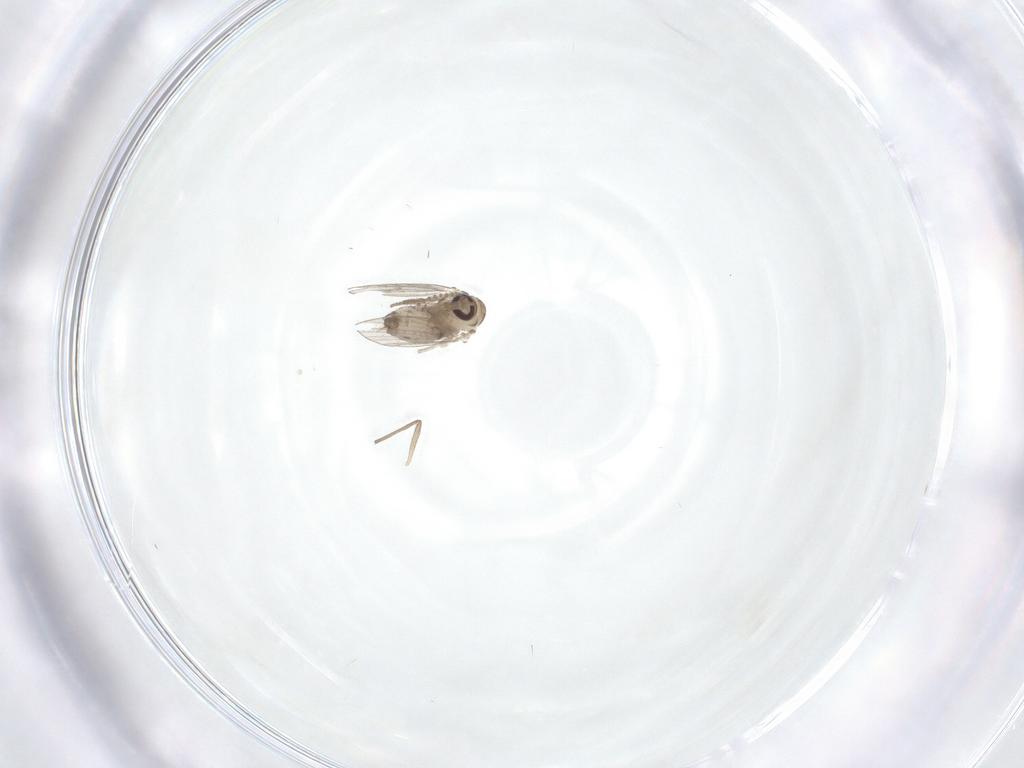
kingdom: Animalia
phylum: Arthropoda
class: Insecta
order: Diptera
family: Psychodidae
